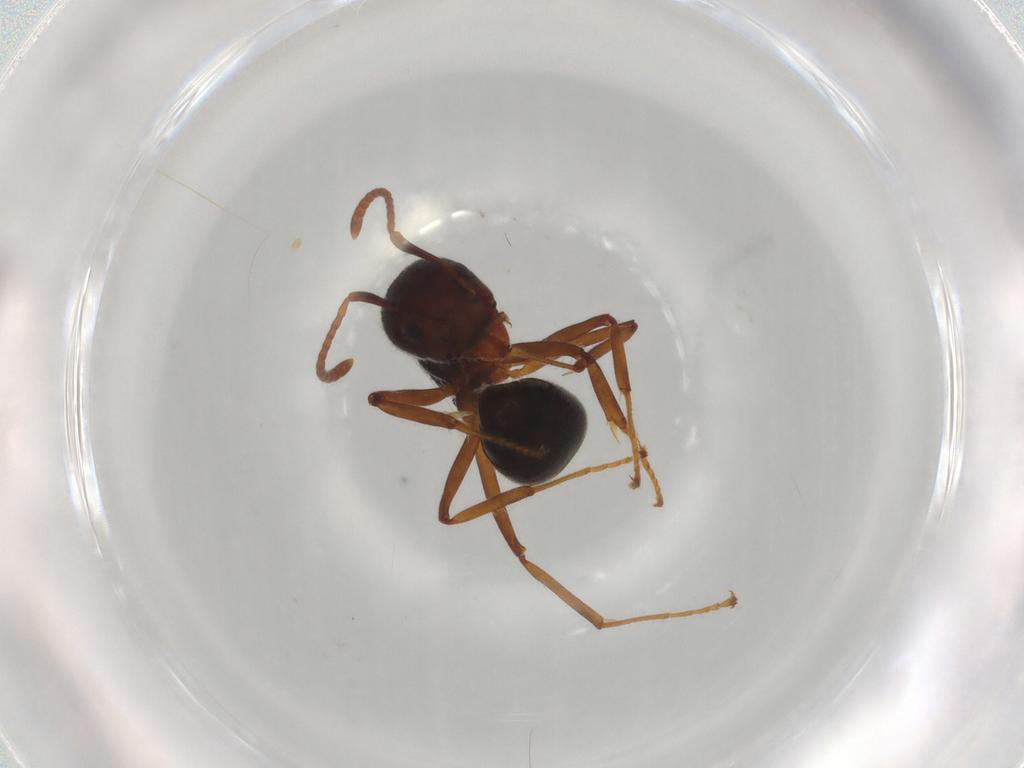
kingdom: Animalia
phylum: Arthropoda
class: Insecta
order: Hymenoptera
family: Formicidae
